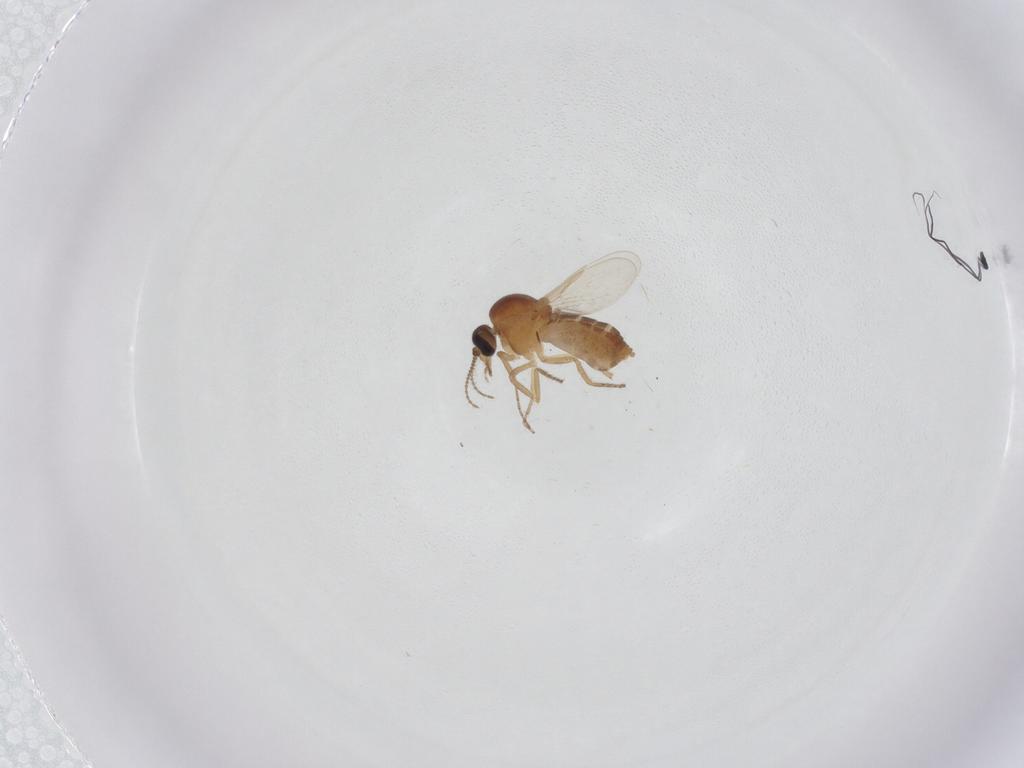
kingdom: Animalia
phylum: Arthropoda
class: Insecta
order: Diptera
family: Ceratopogonidae
